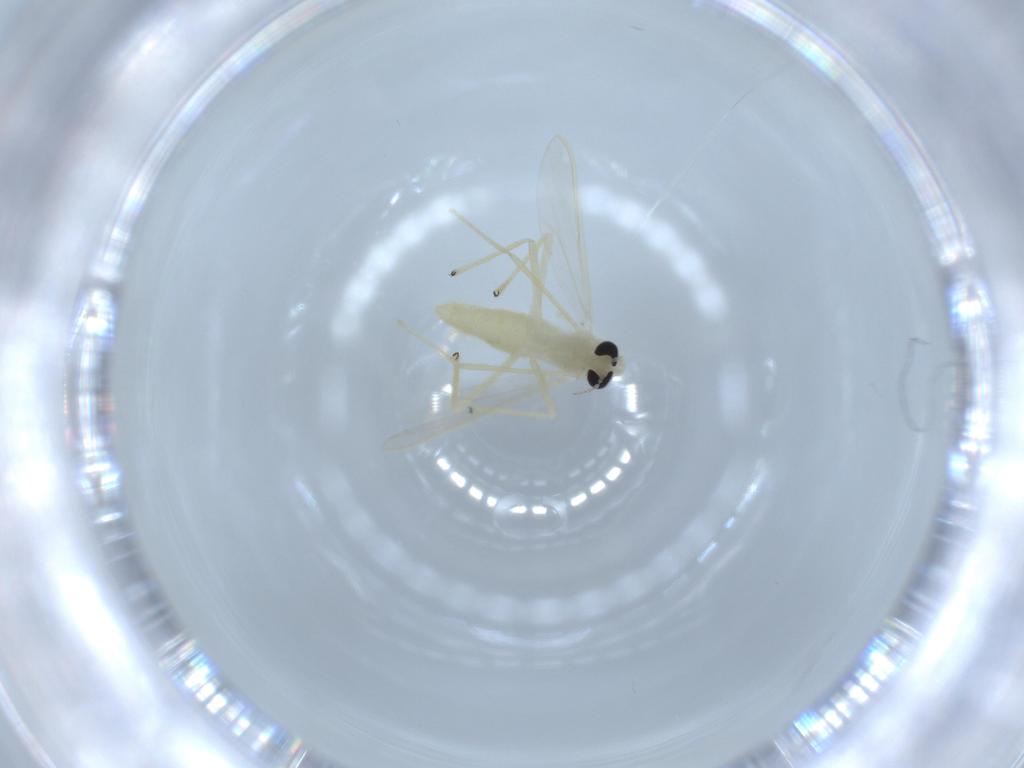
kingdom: Animalia
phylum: Arthropoda
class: Insecta
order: Diptera
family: Chironomidae
